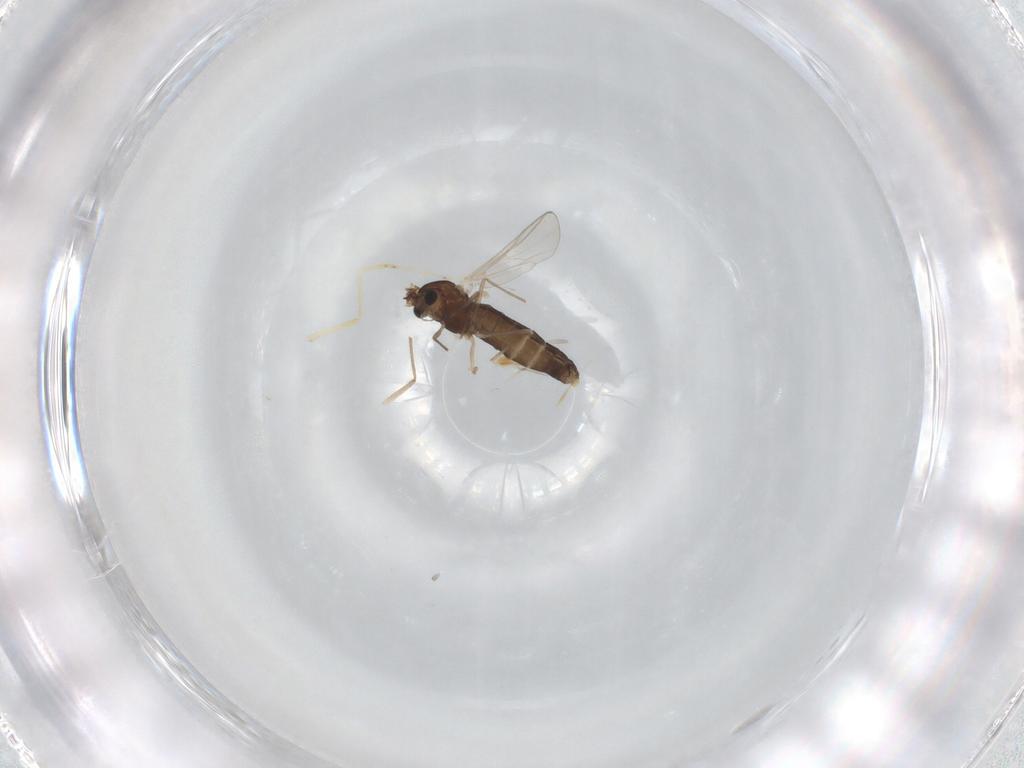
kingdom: Animalia
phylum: Arthropoda
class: Insecta
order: Diptera
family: Chironomidae
